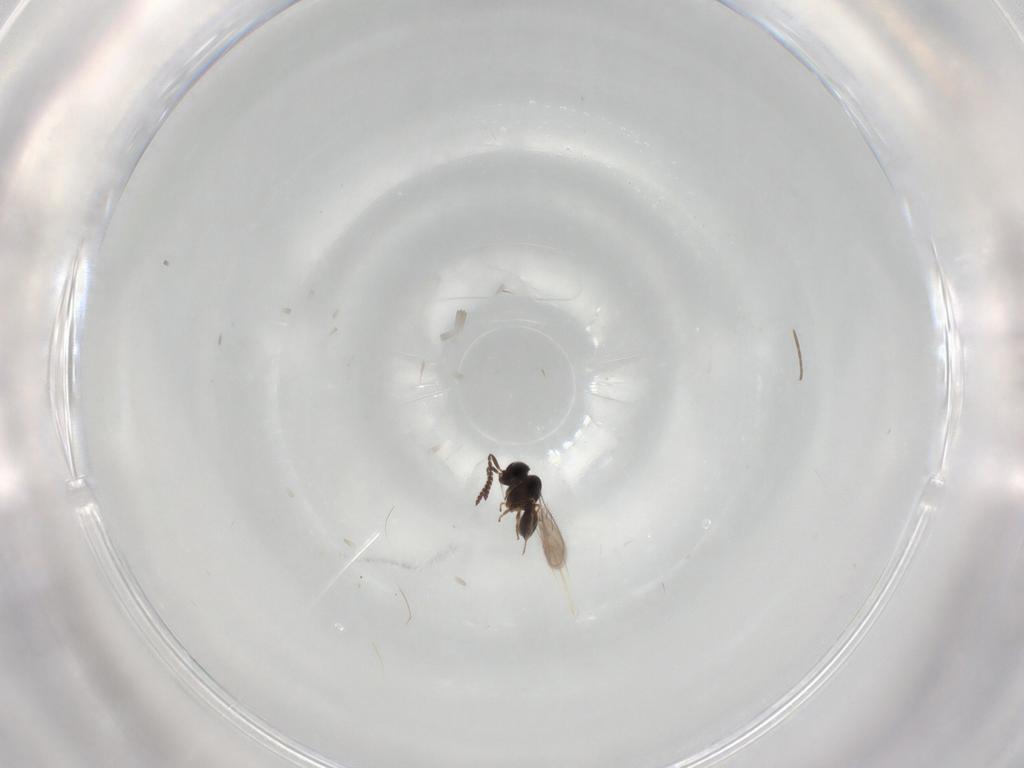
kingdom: Animalia
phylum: Arthropoda
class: Insecta
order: Hymenoptera
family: Scelionidae
